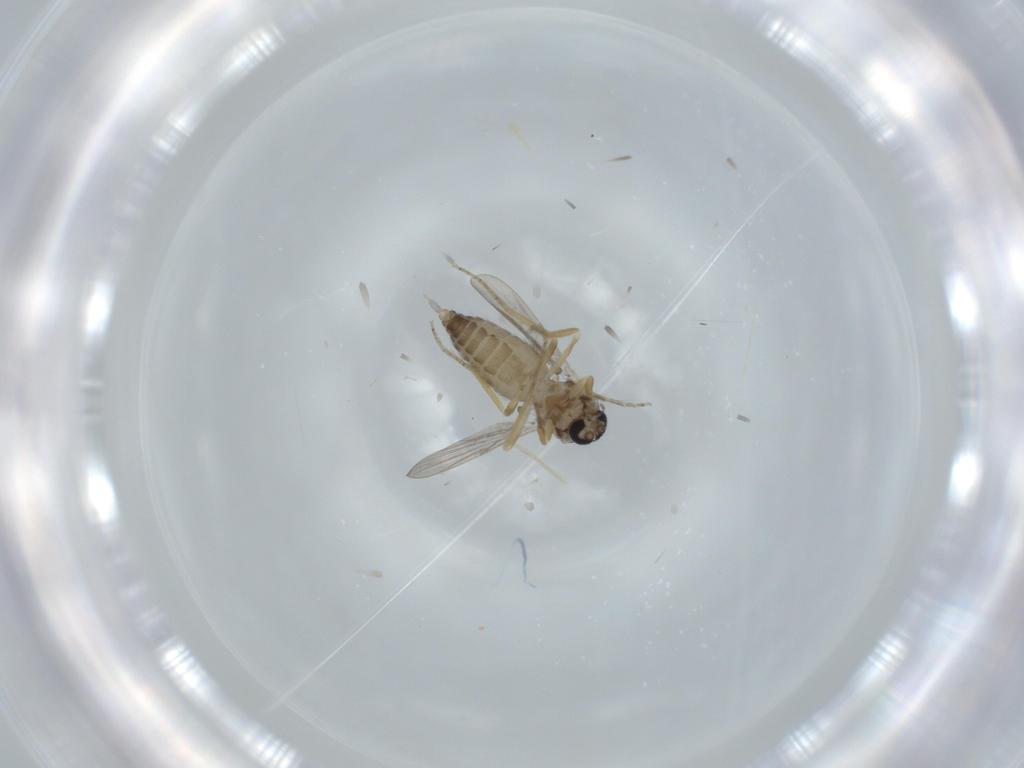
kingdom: Animalia
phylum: Arthropoda
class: Insecta
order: Diptera
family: Ceratopogonidae
